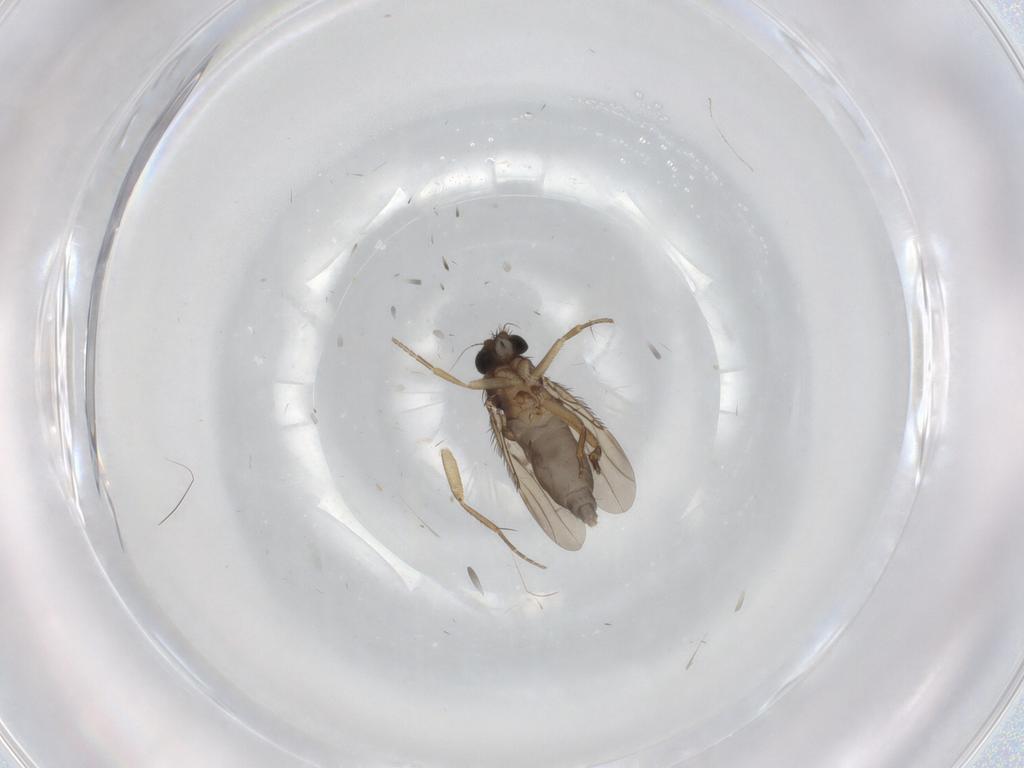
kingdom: Animalia
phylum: Arthropoda
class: Insecta
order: Diptera
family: Phoridae
